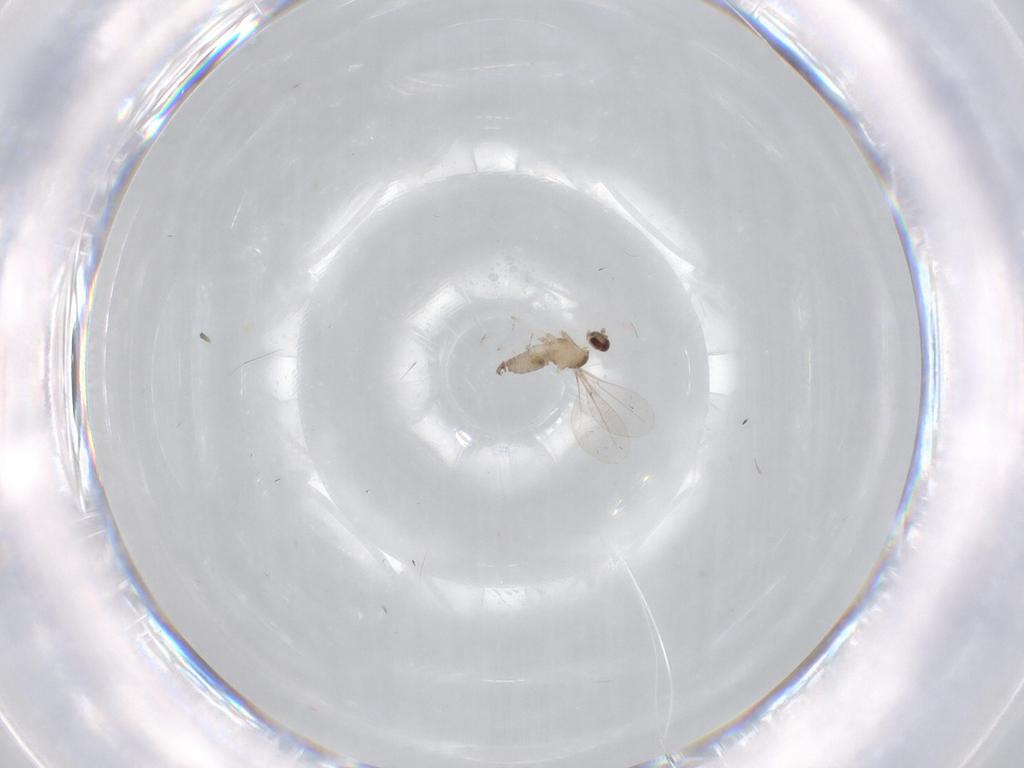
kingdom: Animalia
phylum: Arthropoda
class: Insecta
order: Diptera
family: Cecidomyiidae
